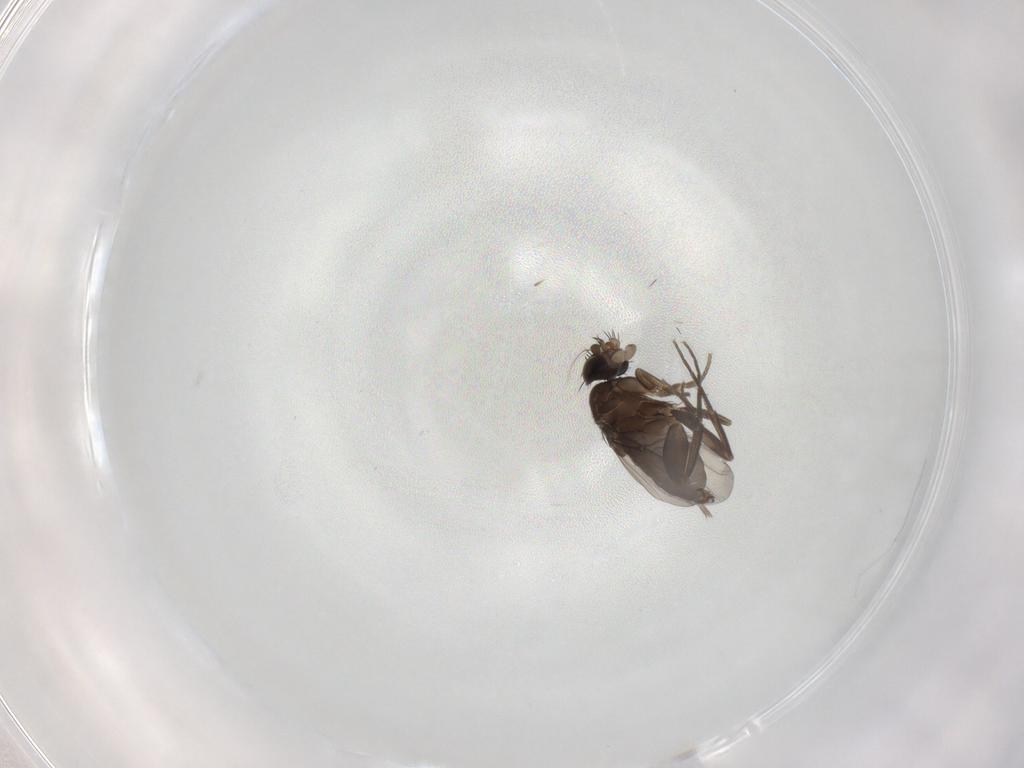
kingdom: Animalia
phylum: Arthropoda
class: Insecta
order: Diptera
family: Phoridae
